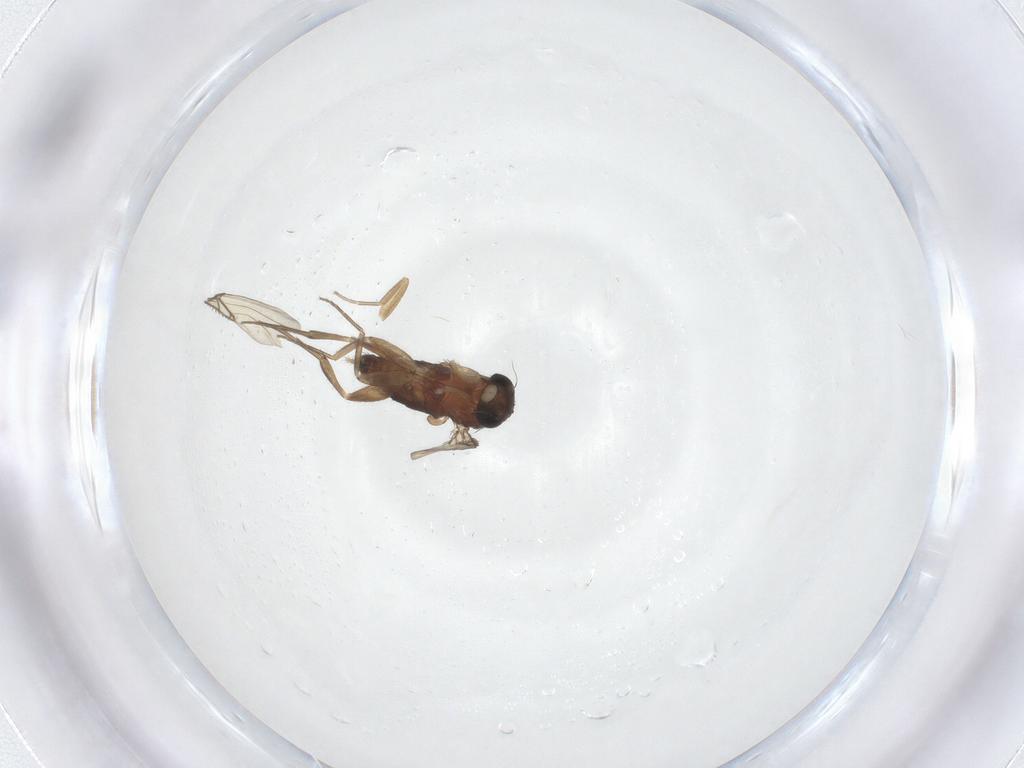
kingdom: Animalia
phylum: Arthropoda
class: Insecta
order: Diptera
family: Phoridae
